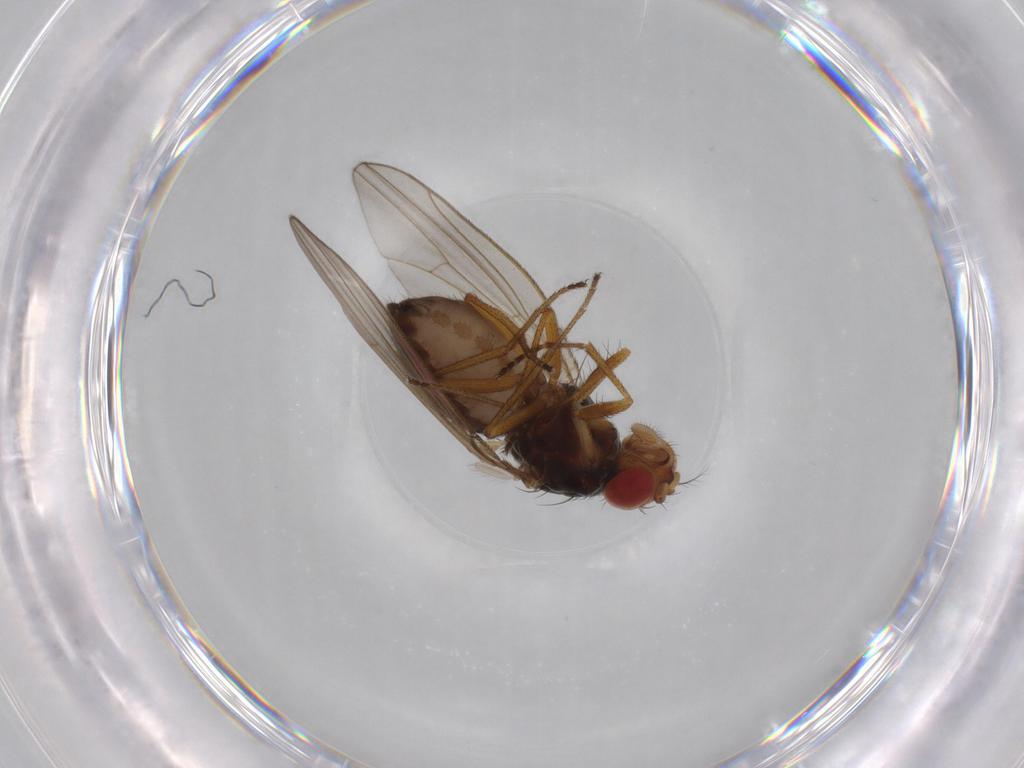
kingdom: Animalia
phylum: Arthropoda
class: Insecta
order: Diptera
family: Drosophilidae
